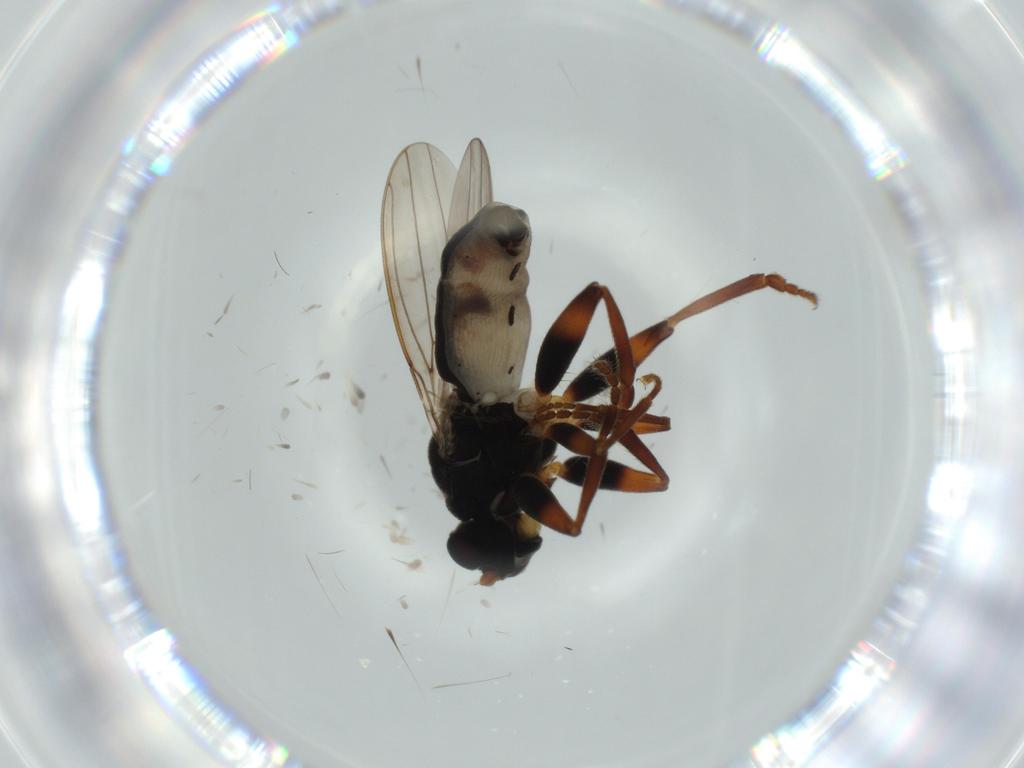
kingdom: Animalia
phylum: Arthropoda
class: Insecta
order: Diptera
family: Sphaeroceridae
